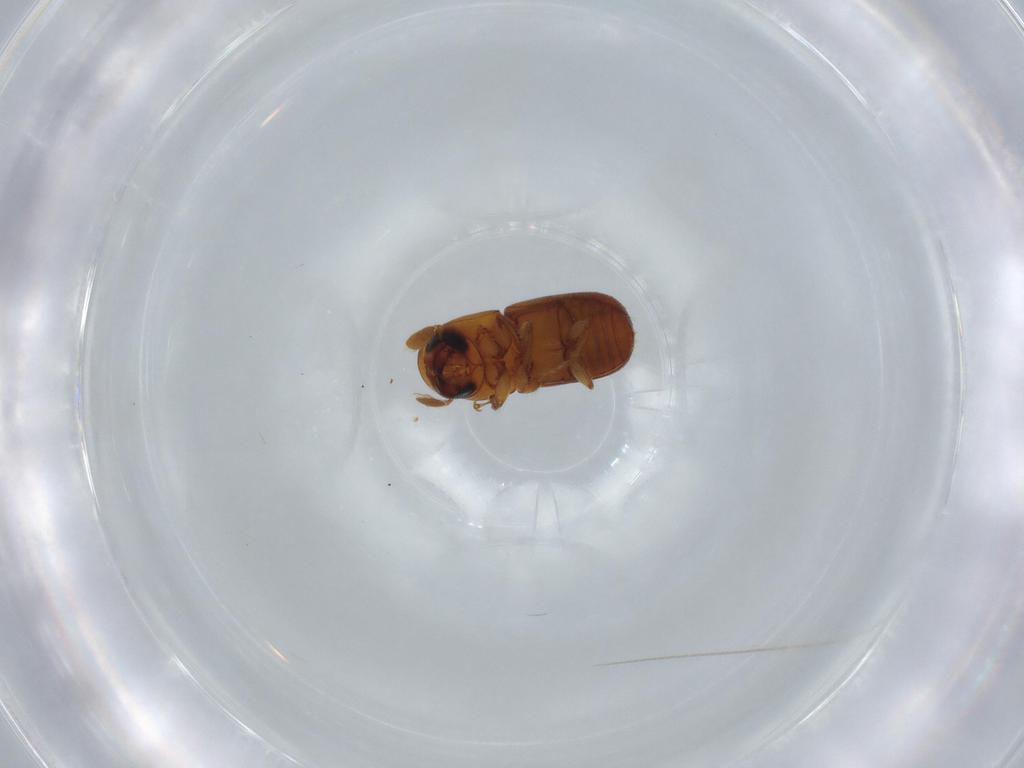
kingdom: Animalia
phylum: Arthropoda
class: Insecta
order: Coleoptera
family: Curculionidae
